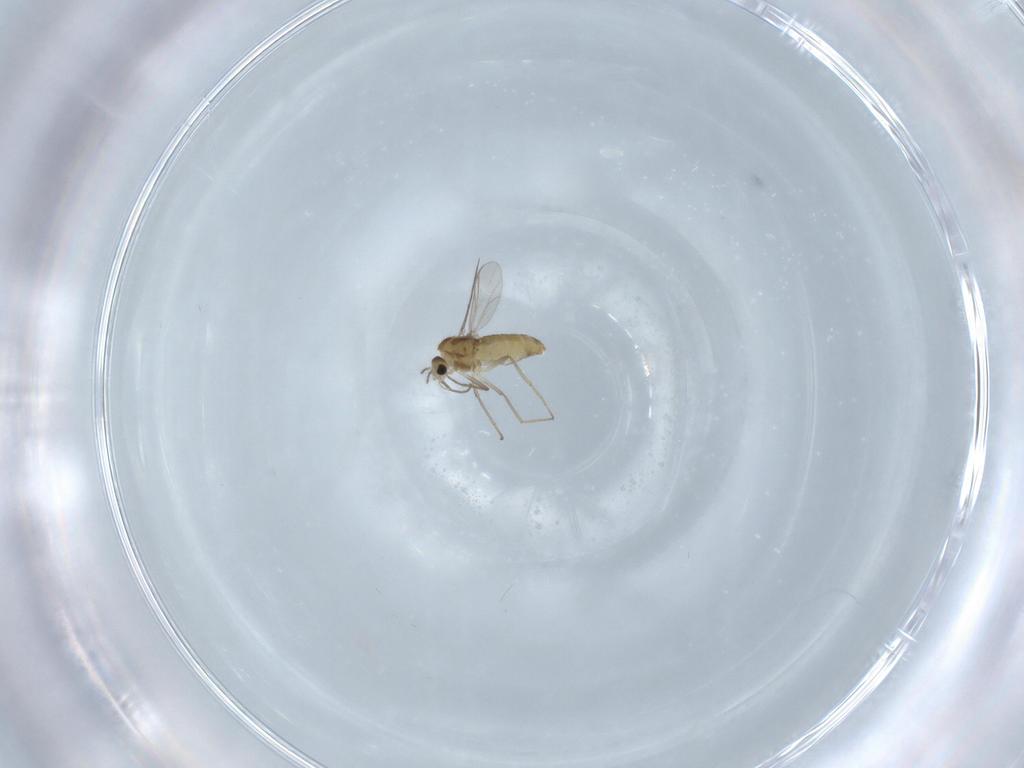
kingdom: Animalia
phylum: Arthropoda
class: Insecta
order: Diptera
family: Chironomidae
